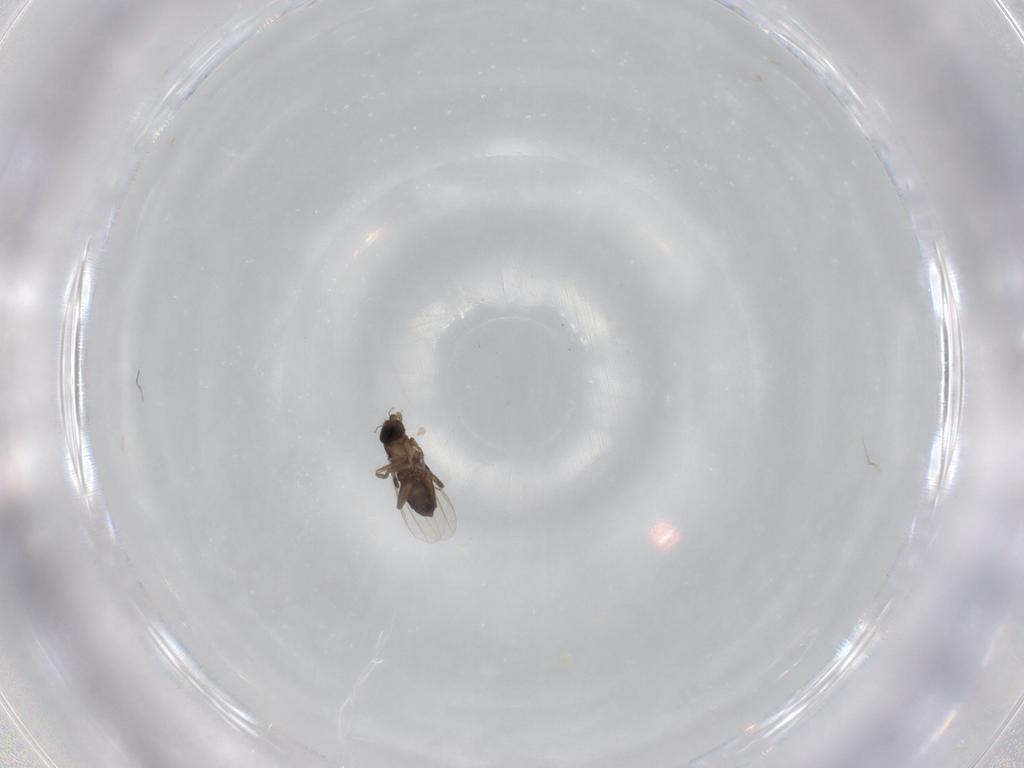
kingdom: Animalia
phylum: Arthropoda
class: Insecta
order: Diptera
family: Phoridae
